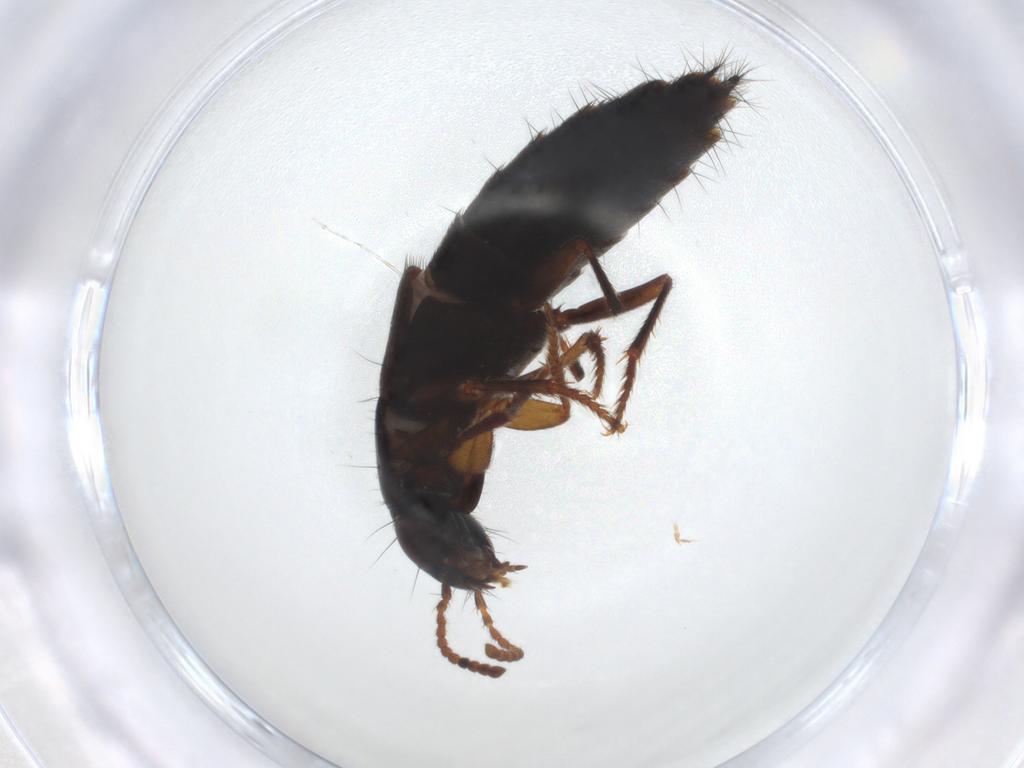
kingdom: Animalia
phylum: Arthropoda
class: Insecta
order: Coleoptera
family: Staphylinidae
